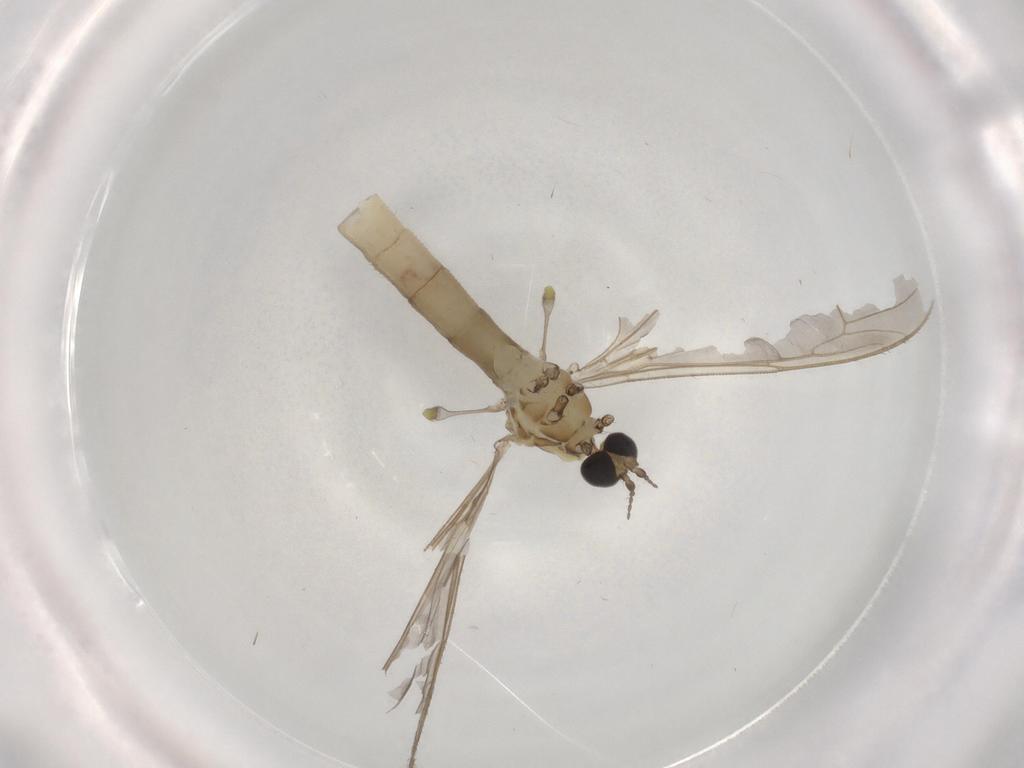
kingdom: Animalia
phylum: Arthropoda
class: Insecta
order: Diptera
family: Limoniidae
